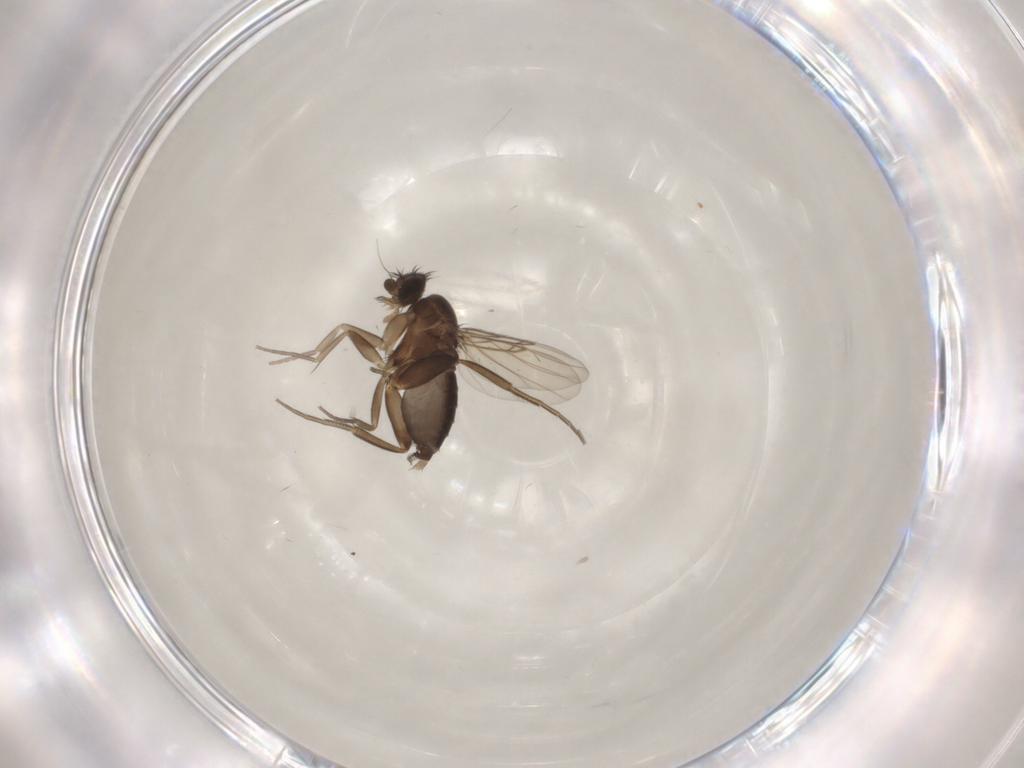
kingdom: Animalia
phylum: Arthropoda
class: Insecta
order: Diptera
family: Phoridae
